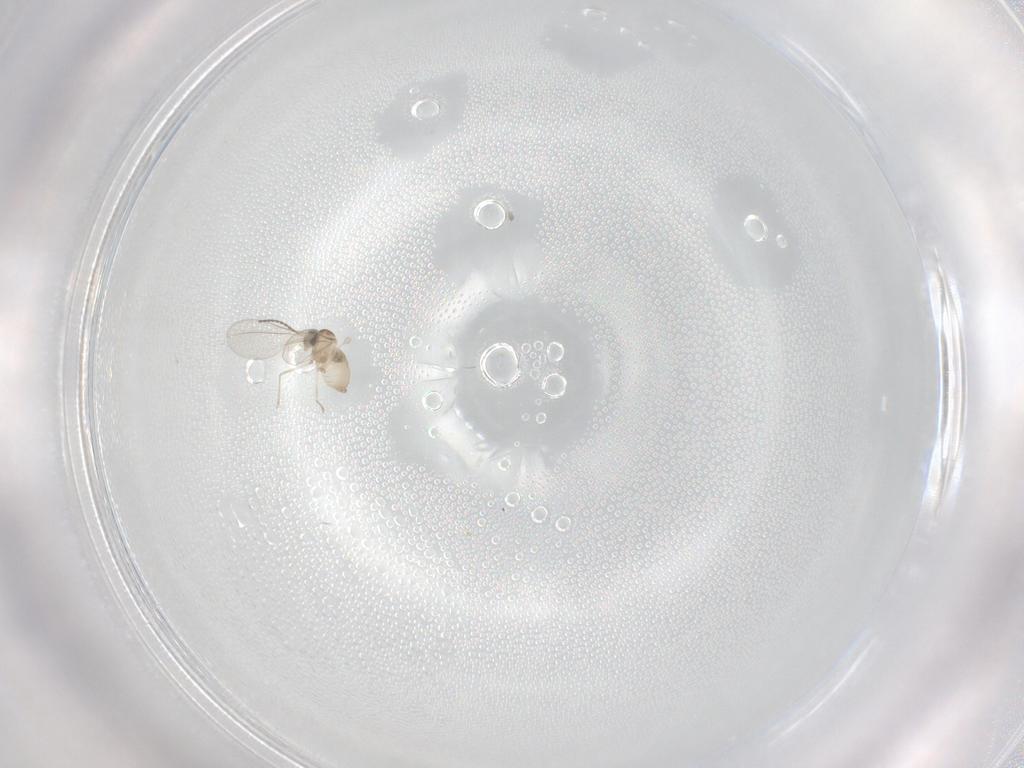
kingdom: Animalia
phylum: Arthropoda
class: Insecta
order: Diptera
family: Cecidomyiidae
